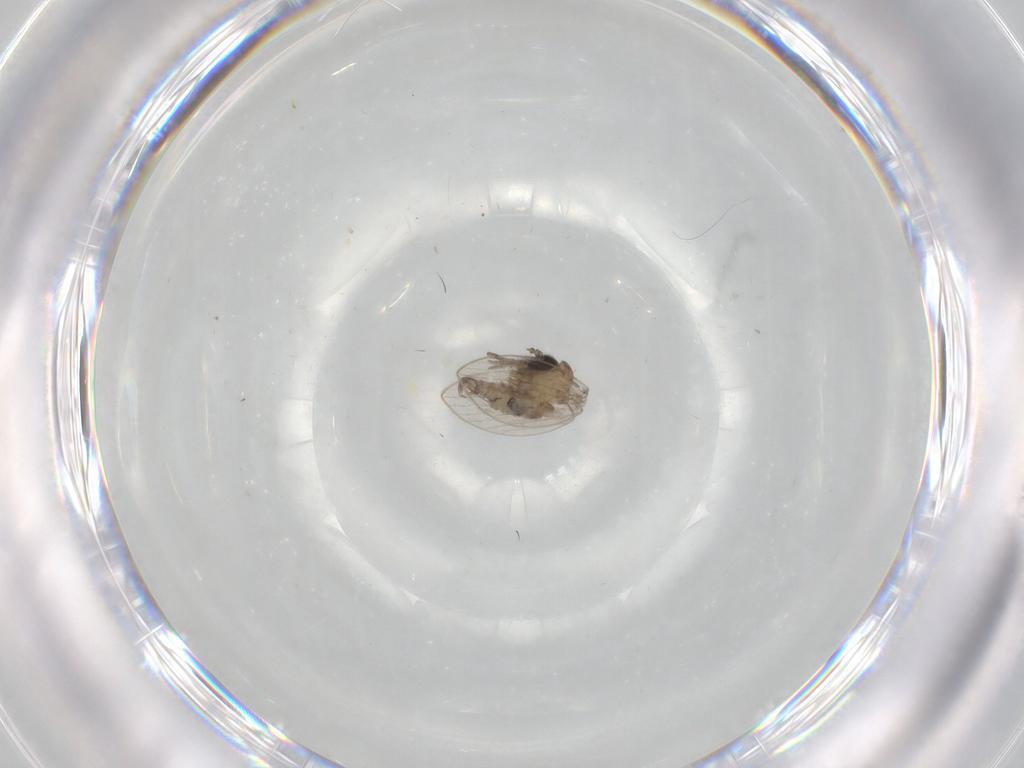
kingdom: Animalia
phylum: Arthropoda
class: Insecta
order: Diptera
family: Psychodidae
